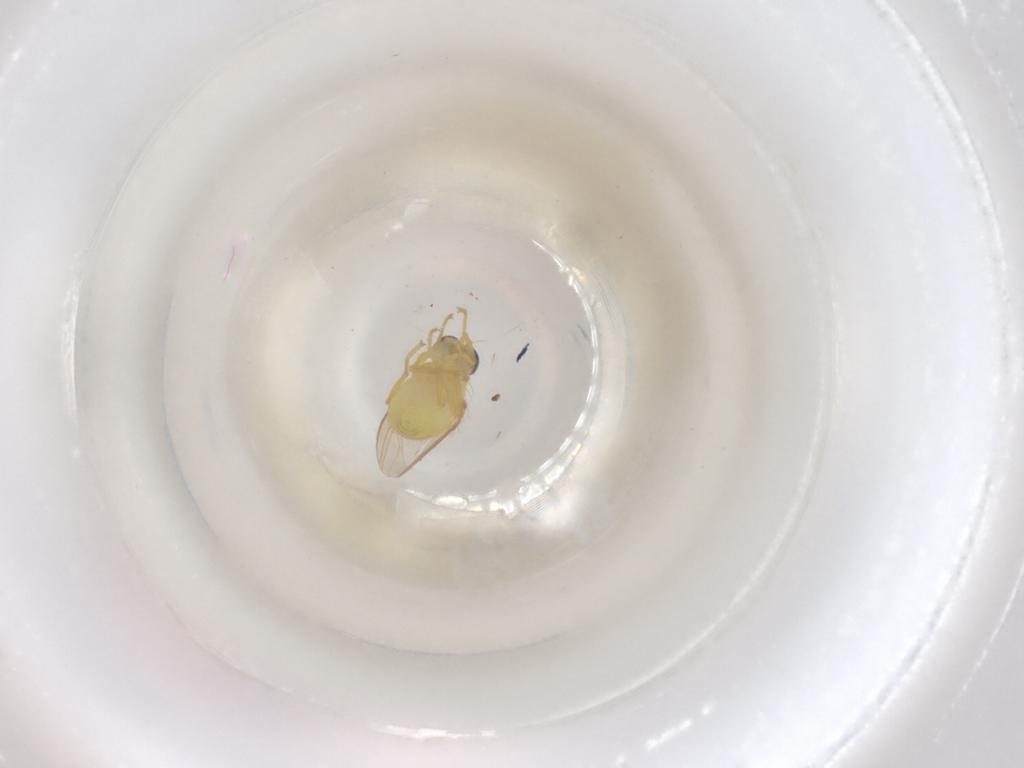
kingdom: Animalia
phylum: Arthropoda
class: Insecta
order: Diptera
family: Chyromyidae
